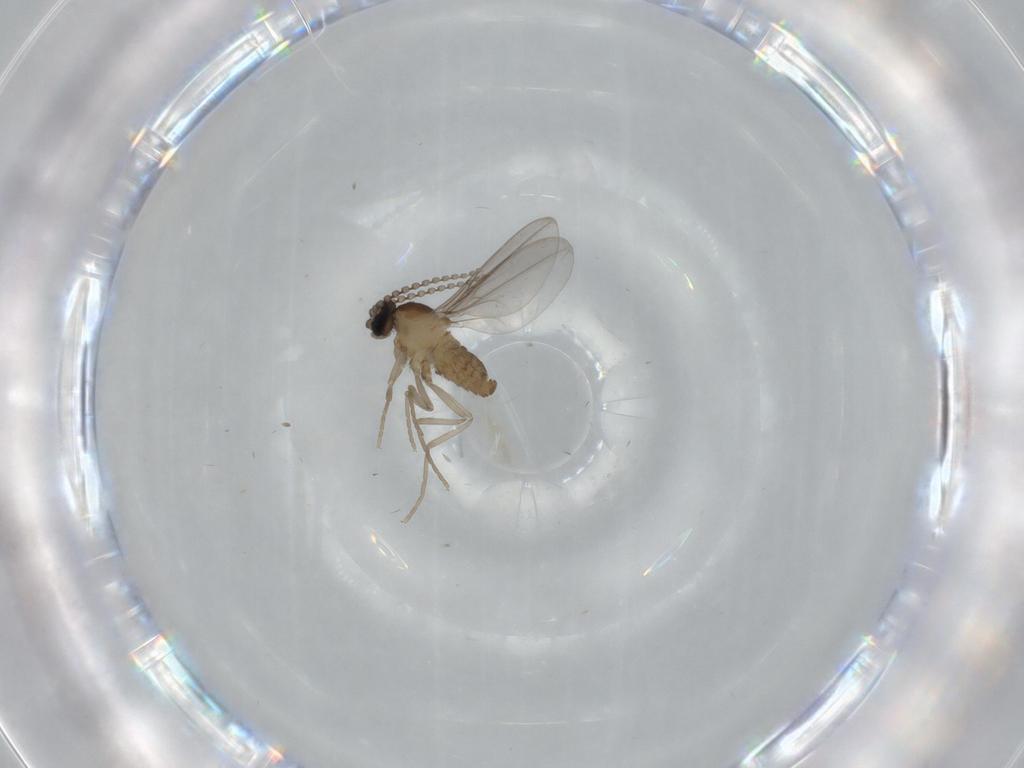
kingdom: Animalia
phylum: Arthropoda
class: Insecta
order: Diptera
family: Cecidomyiidae
